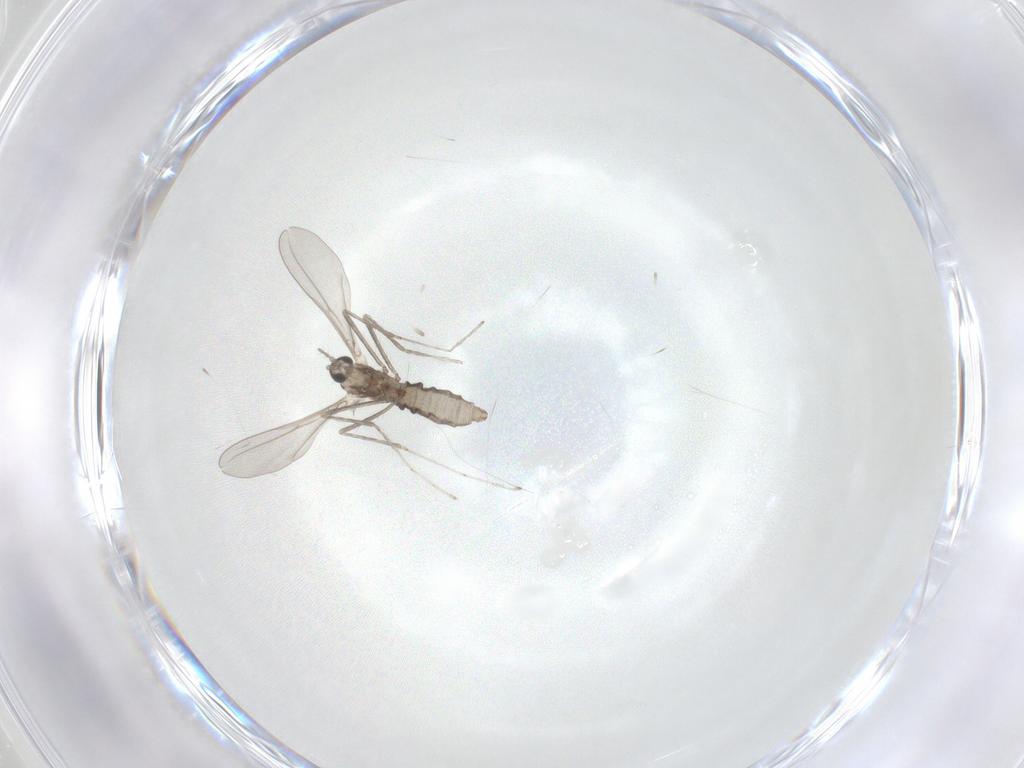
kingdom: Animalia
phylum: Arthropoda
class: Insecta
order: Diptera
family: Cecidomyiidae
